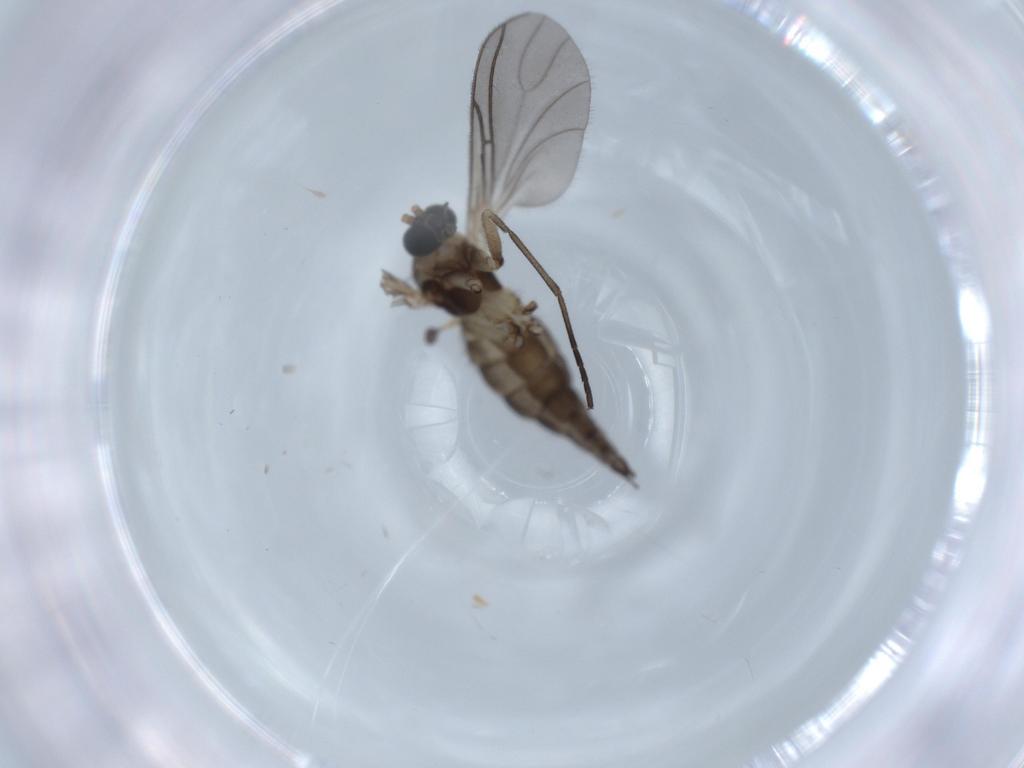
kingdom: Animalia
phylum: Arthropoda
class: Insecta
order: Diptera
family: Sciaridae
